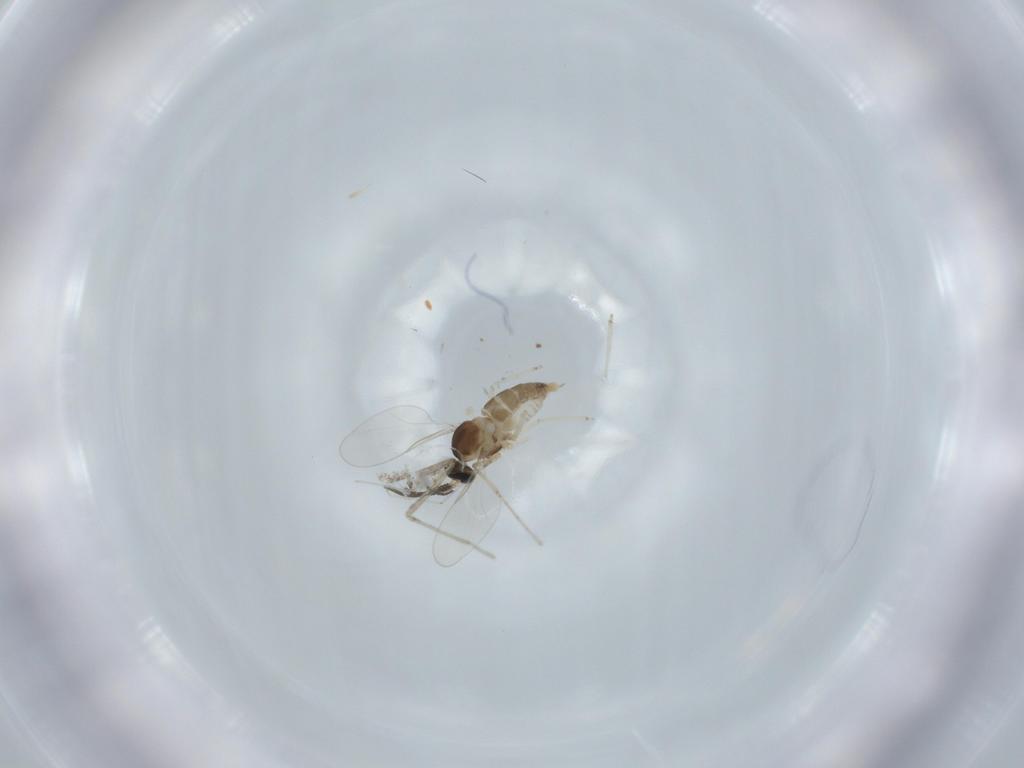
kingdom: Animalia
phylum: Arthropoda
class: Insecta
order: Diptera
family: Cecidomyiidae
